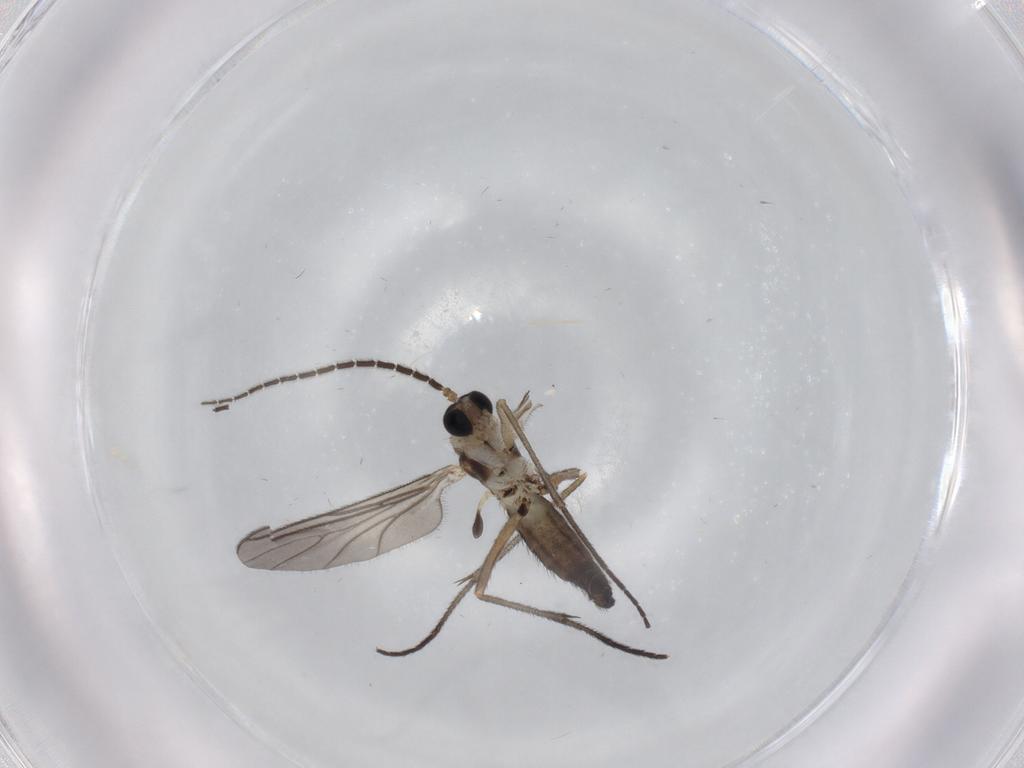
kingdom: Animalia
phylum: Arthropoda
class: Insecta
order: Diptera
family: Sciaridae
